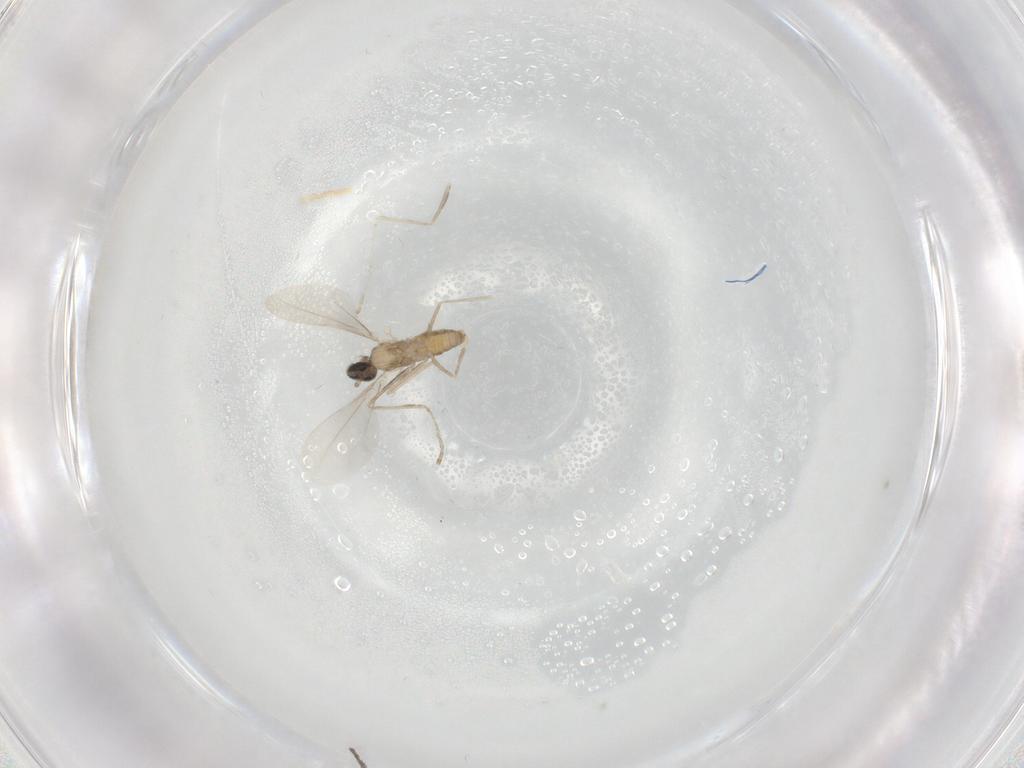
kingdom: Animalia
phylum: Arthropoda
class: Insecta
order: Diptera
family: Cecidomyiidae
